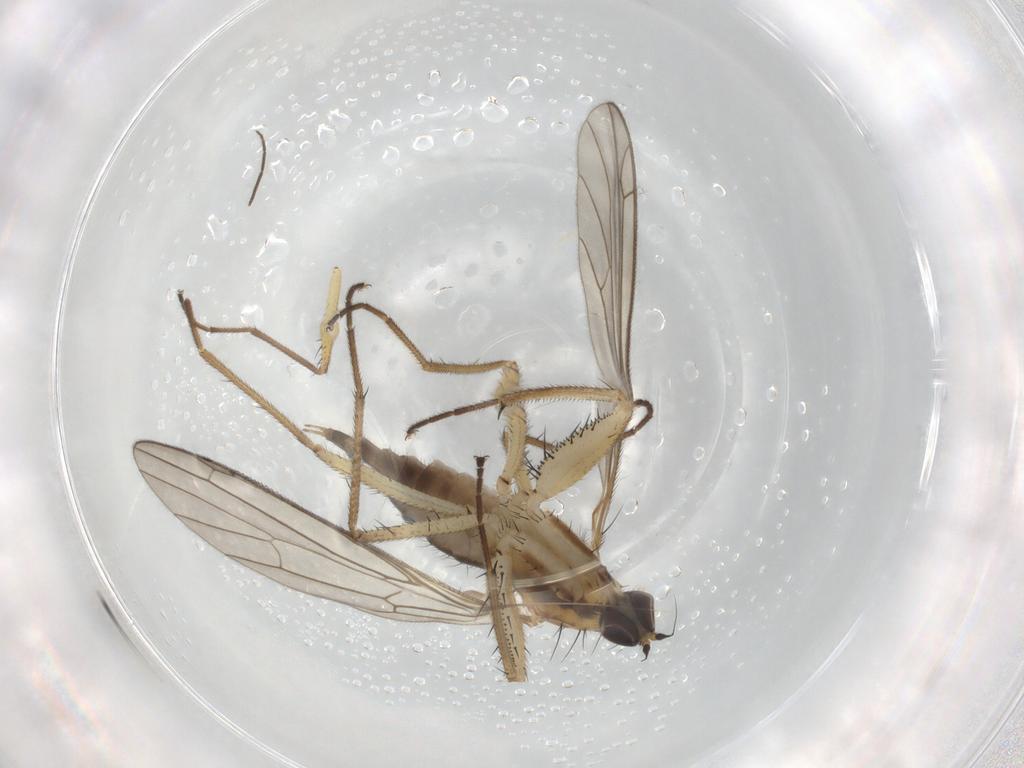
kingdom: Animalia
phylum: Arthropoda
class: Insecta
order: Diptera
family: Empididae
